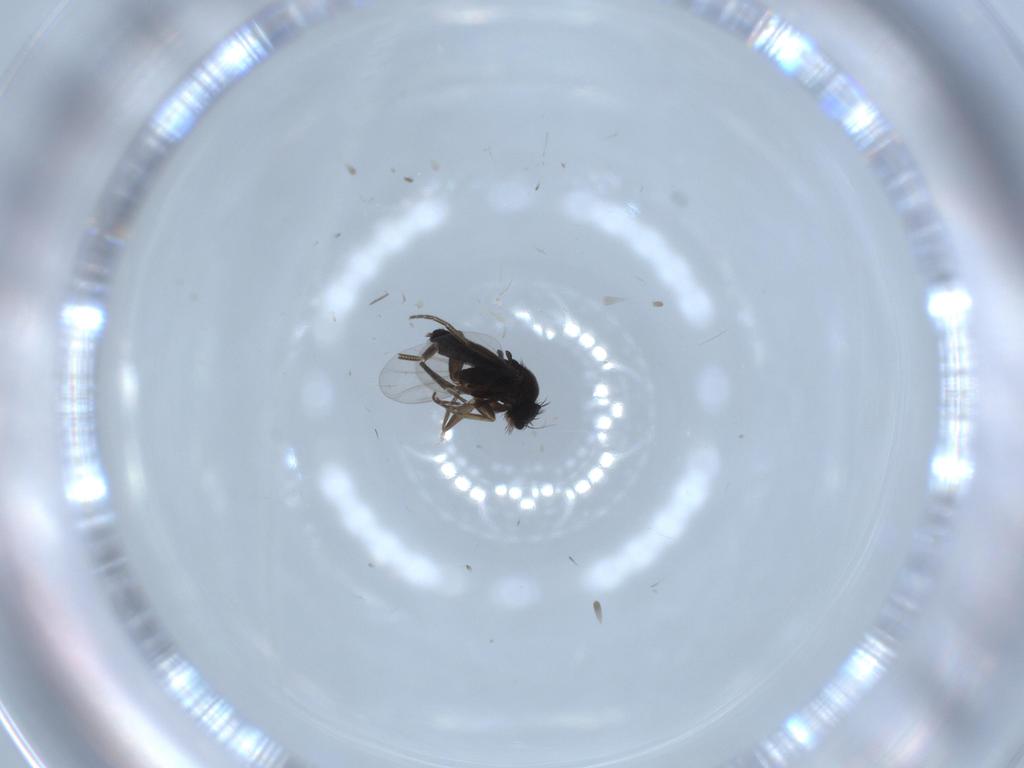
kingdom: Animalia
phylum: Arthropoda
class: Insecta
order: Diptera
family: Phoridae
